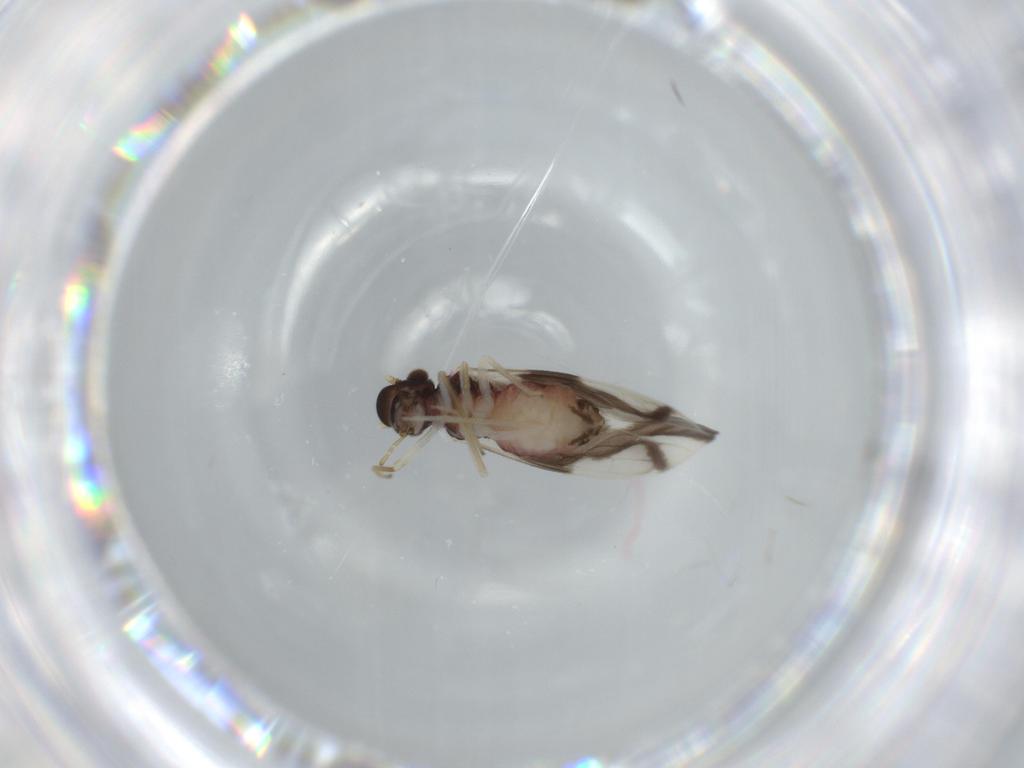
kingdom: Animalia
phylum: Arthropoda
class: Insecta
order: Psocodea
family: Caeciliusidae
